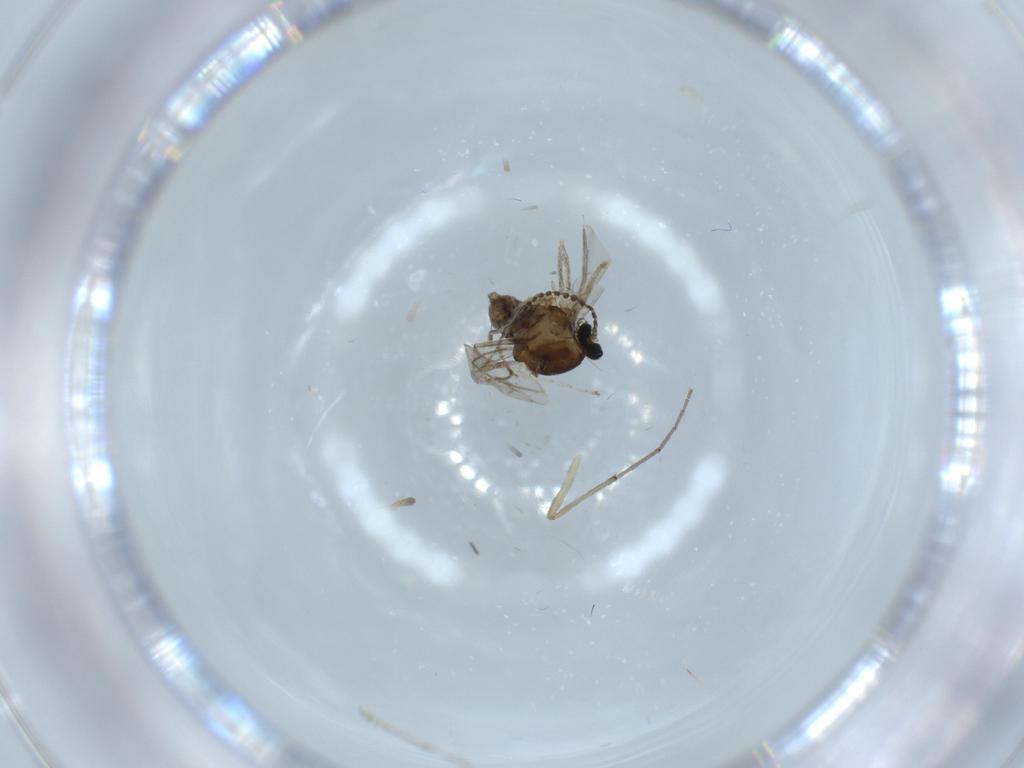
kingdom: Animalia
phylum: Arthropoda
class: Insecta
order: Diptera
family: Cecidomyiidae
